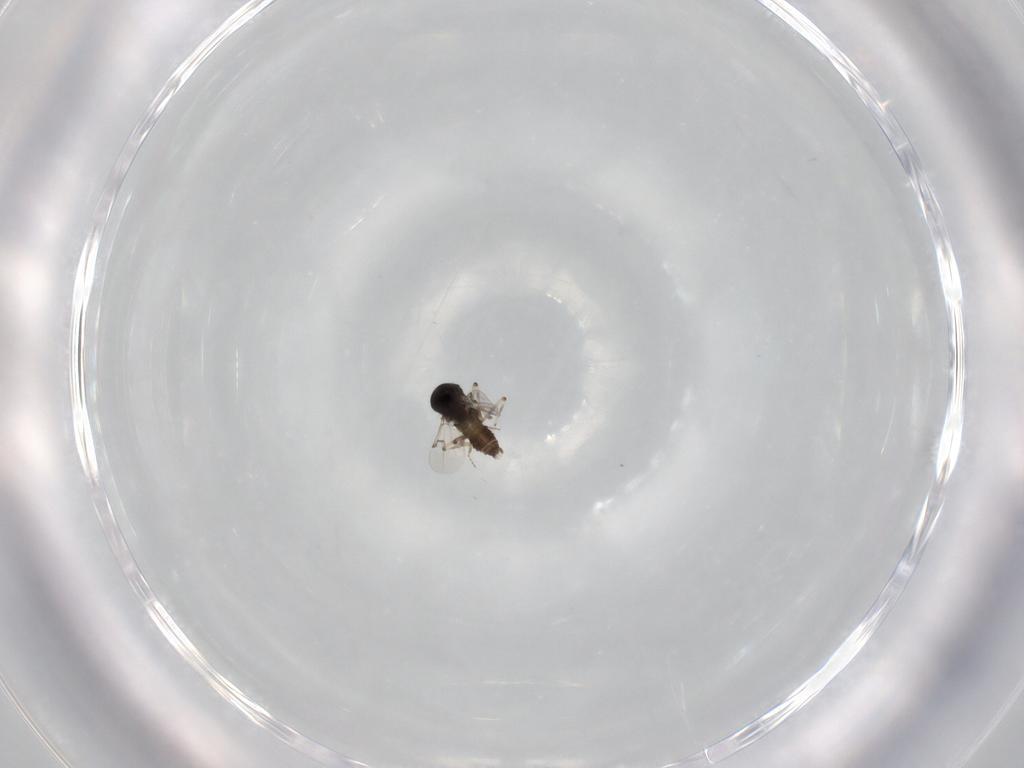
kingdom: Animalia
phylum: Arthropoda
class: Insecta
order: Diptera
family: Ceratopogonidae
